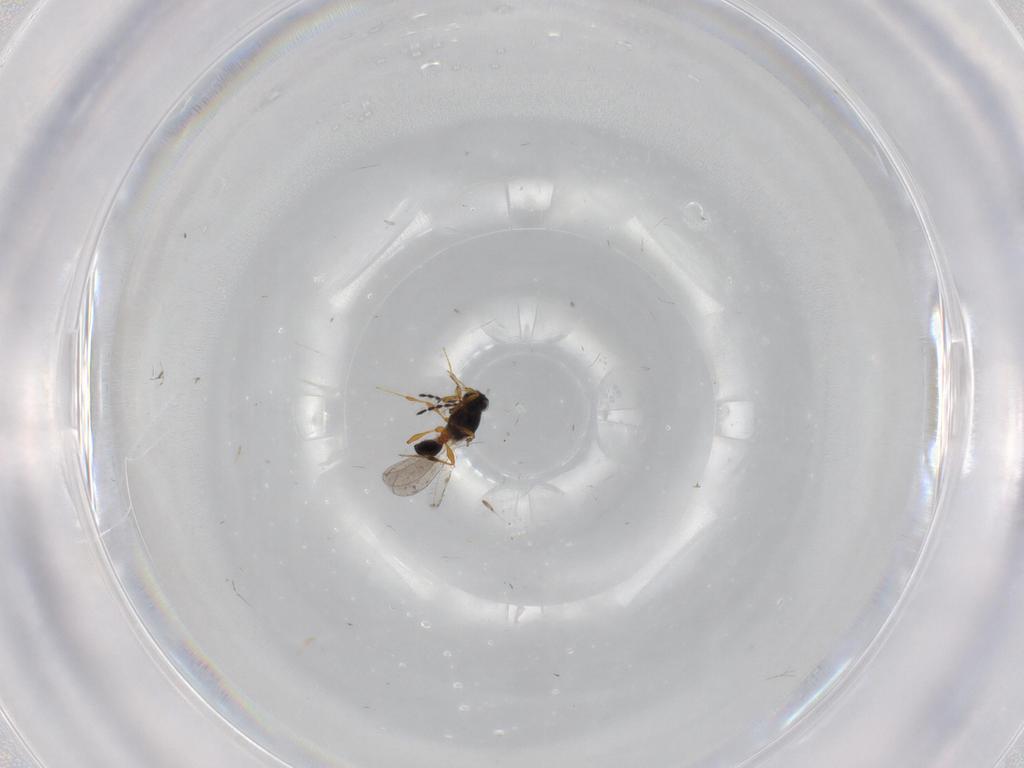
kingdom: Animalia
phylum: Arthropoda
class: Insecta
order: Hymenoptera
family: Platygastridae
